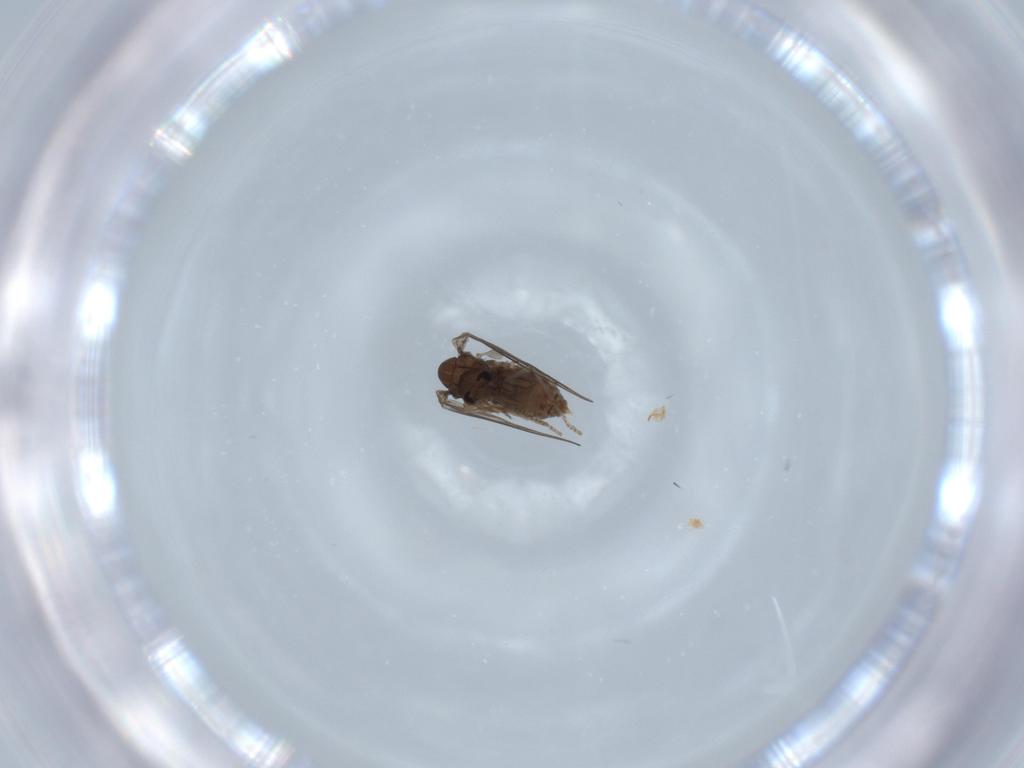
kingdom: Animalia
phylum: Arthropoda
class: Insecta
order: Diptera
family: Psychodidae
